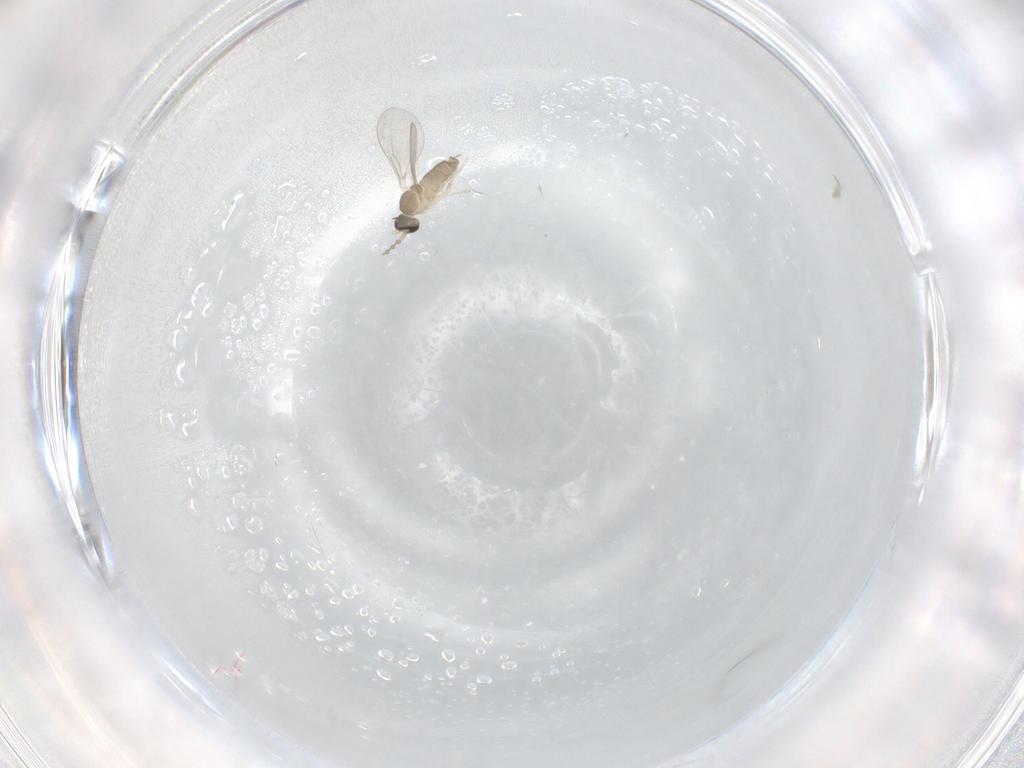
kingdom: Animalia
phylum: Arthropoda
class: Insecta
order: Diptera
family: Cecidomyiidae
